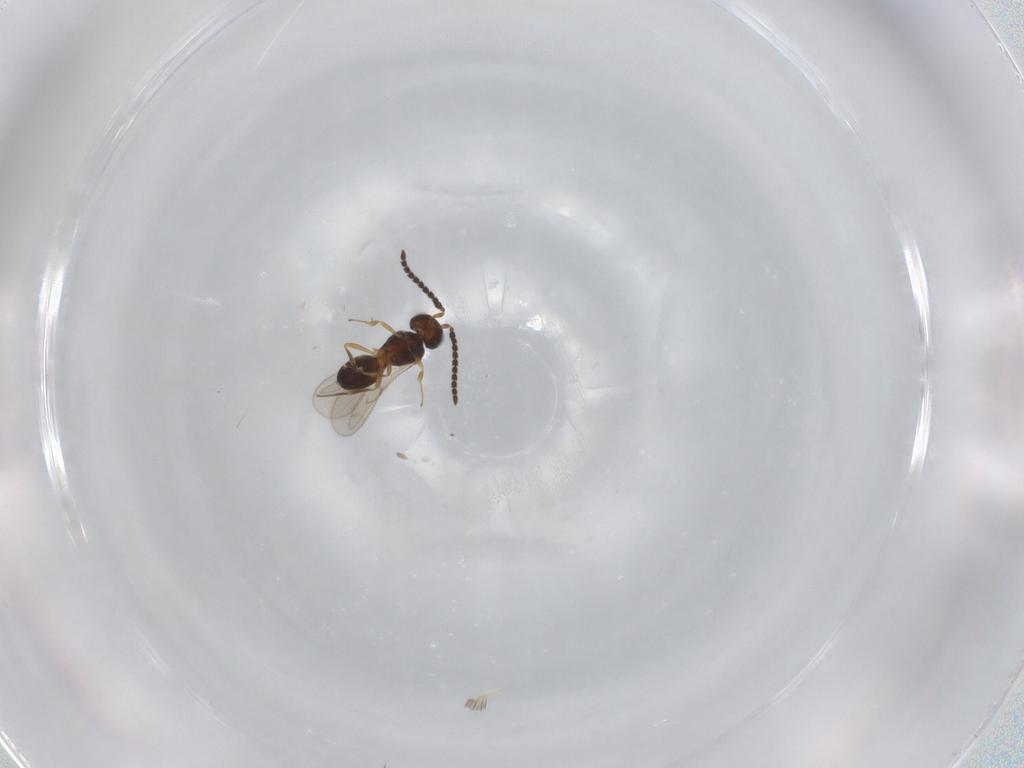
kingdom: Animalia
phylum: Arthropoda
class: Insecta
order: Hymenoptera
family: Scelionidae
